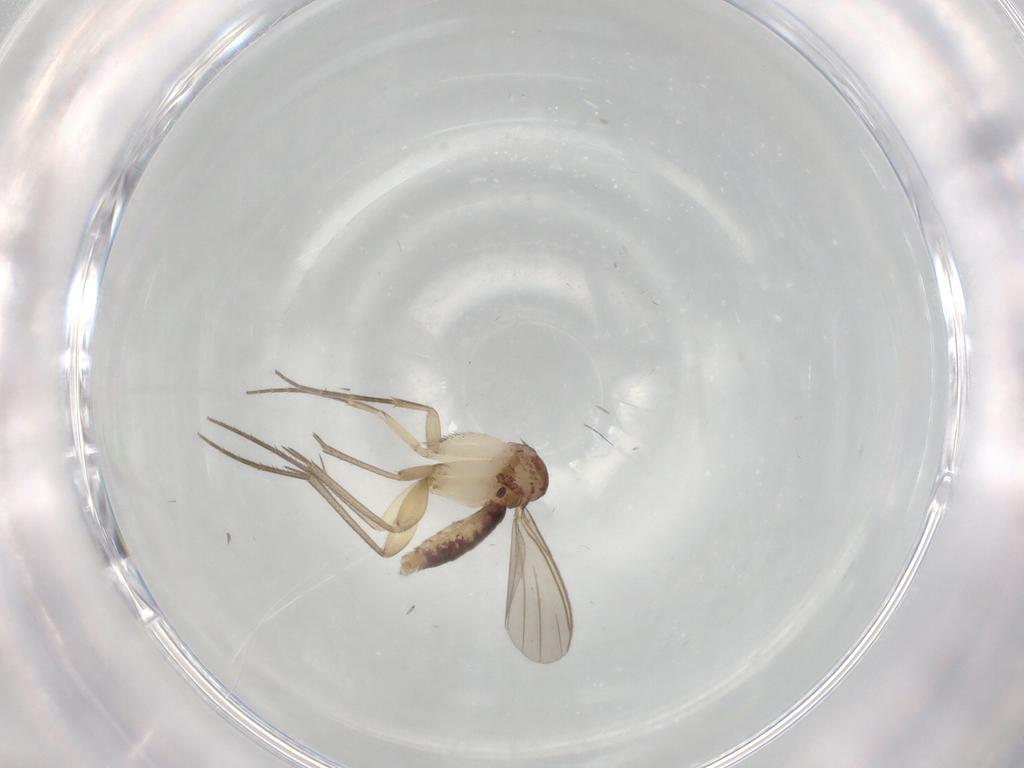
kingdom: Animalia
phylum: Arthropoda
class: Insecta
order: Diptera
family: Mycetophilidae
